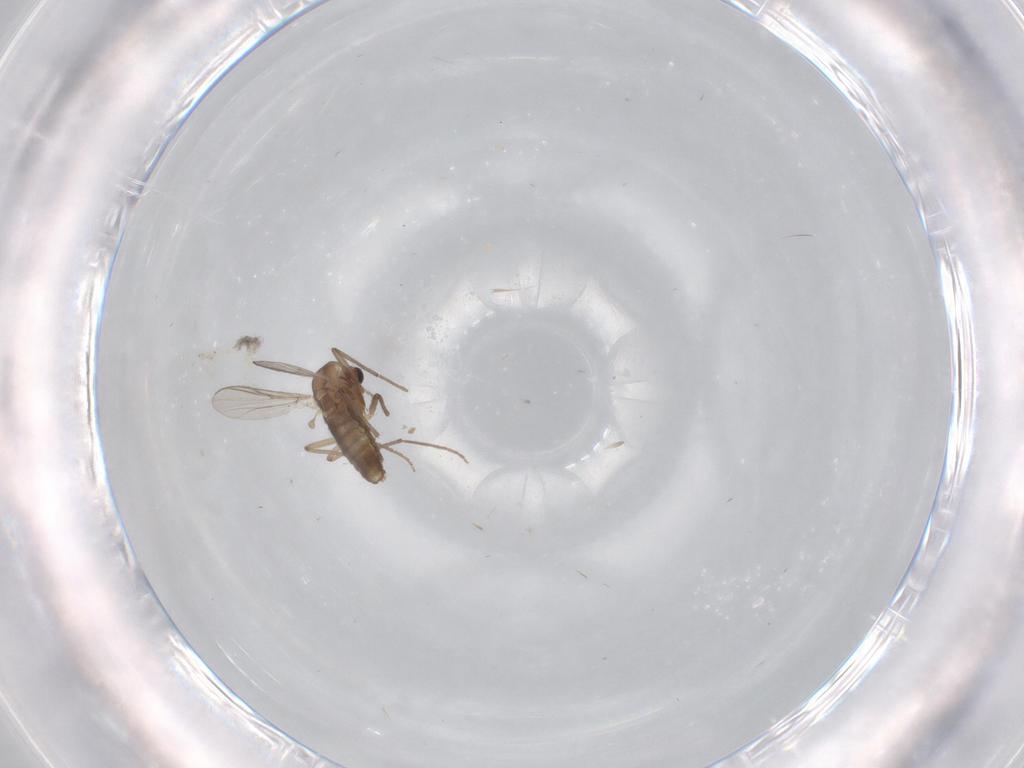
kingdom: Animalia
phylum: Arthropoda
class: Insecta
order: Diptera
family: Chironomidae
